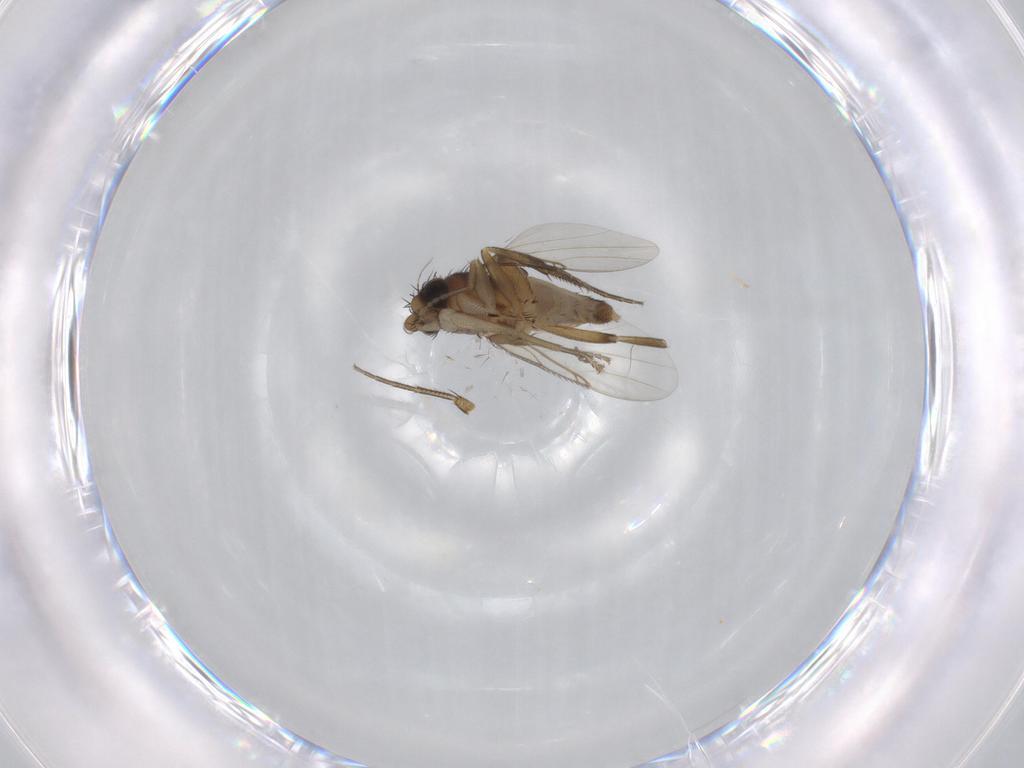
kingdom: Animalia
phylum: Arthropoda
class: Insecta
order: Diptera
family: Phoridae
